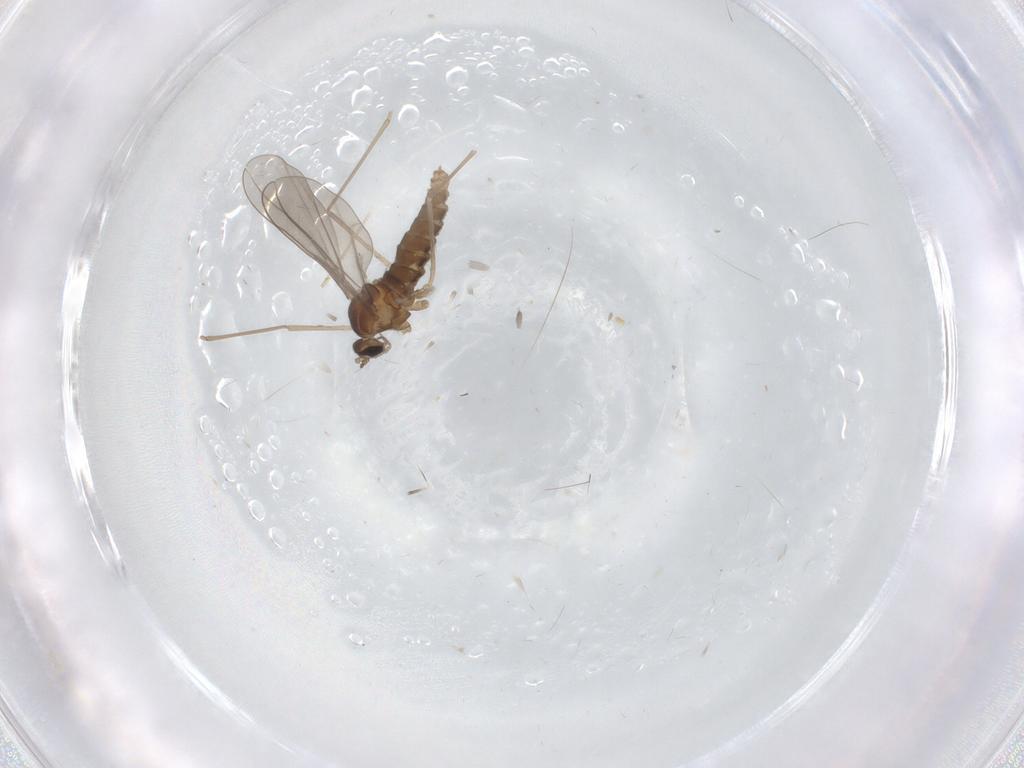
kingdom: Animalia
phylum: Arthropoda
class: Insecta
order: Diptera
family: Cecidomyiidae
